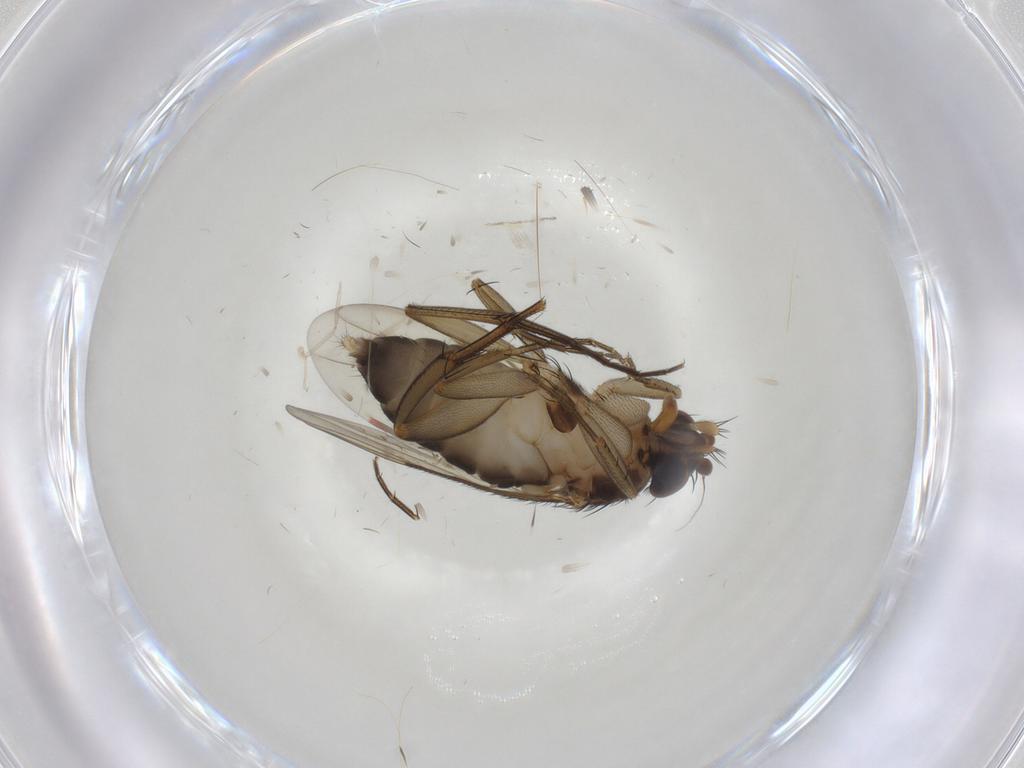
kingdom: Animalia
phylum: Arthropoda
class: Insecta
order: Diptera
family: Phoridae
